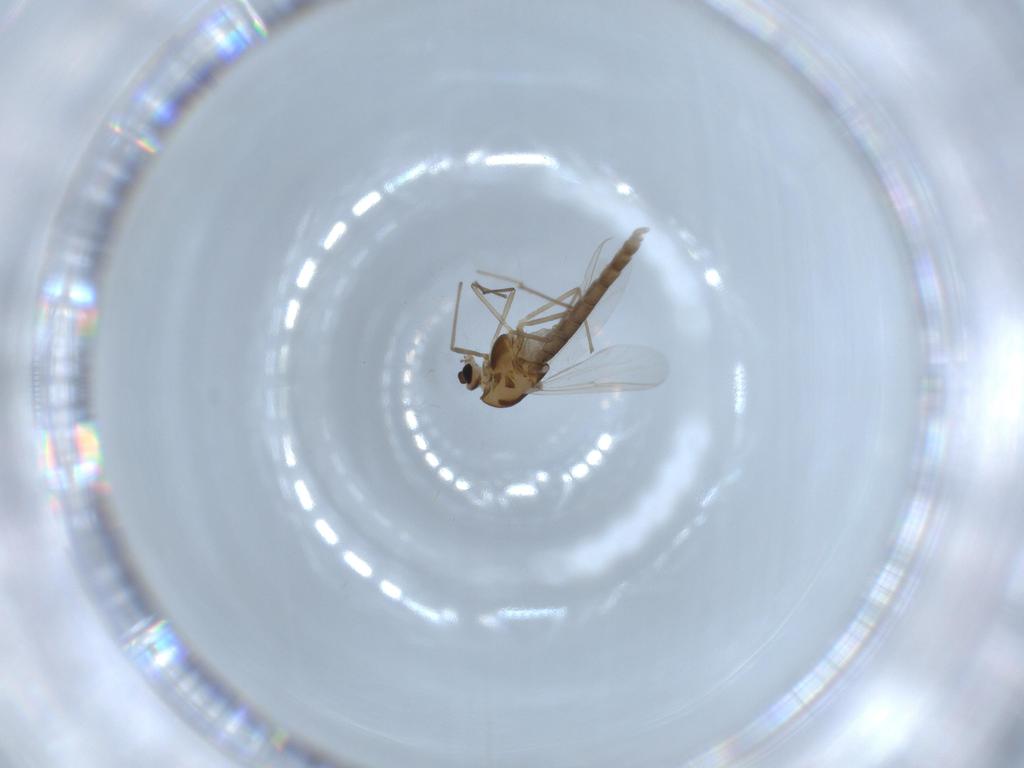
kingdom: Animalia
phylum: Arthropoda
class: Insecta
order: Diptera
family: Chironomidae
